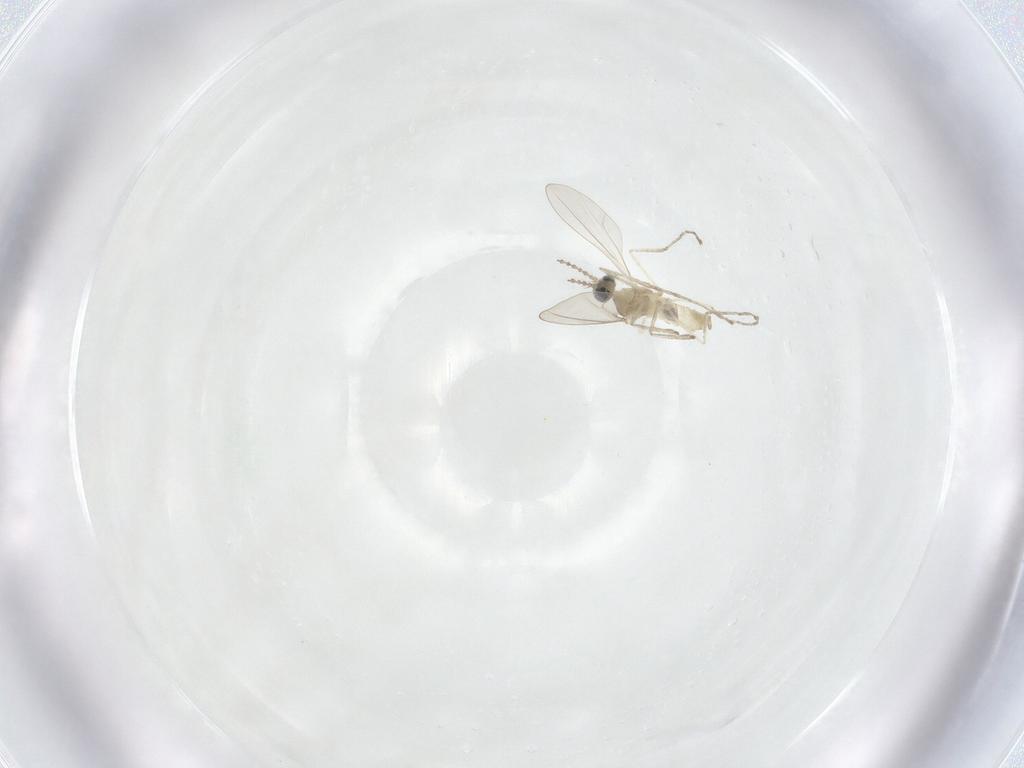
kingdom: Animalia
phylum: Arthropoda
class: Insecta
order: Diptera
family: Cecidomyiidae
